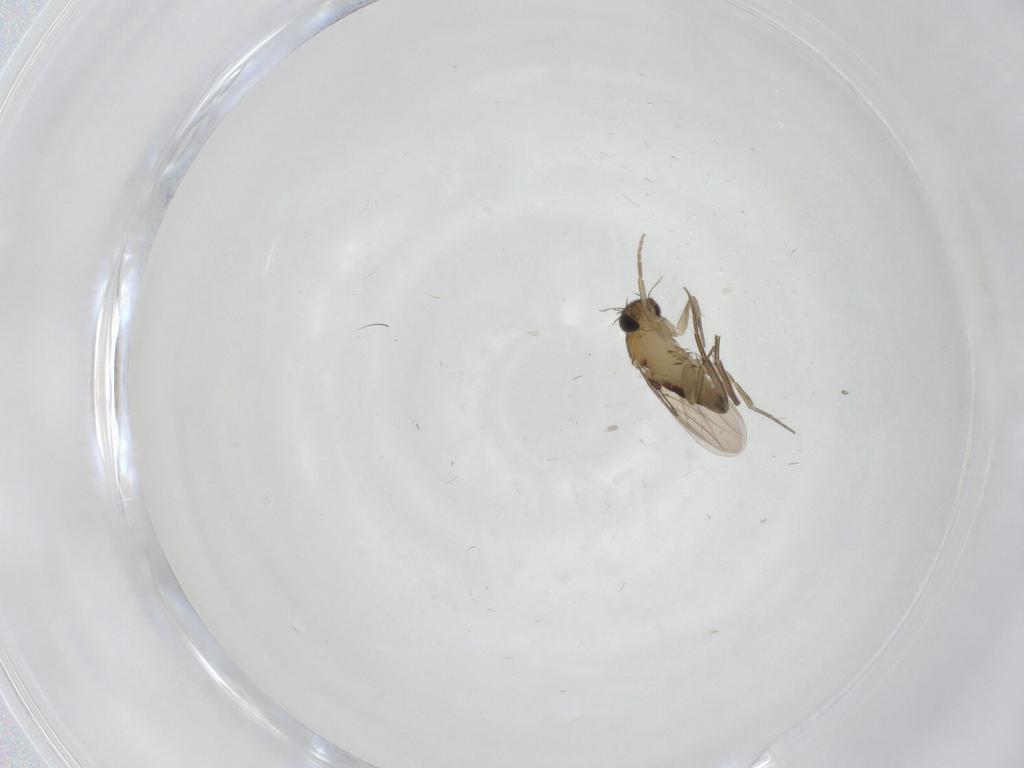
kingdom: Animalia
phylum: Arthropoda
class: Insecta
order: Diptera
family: Phoridae
